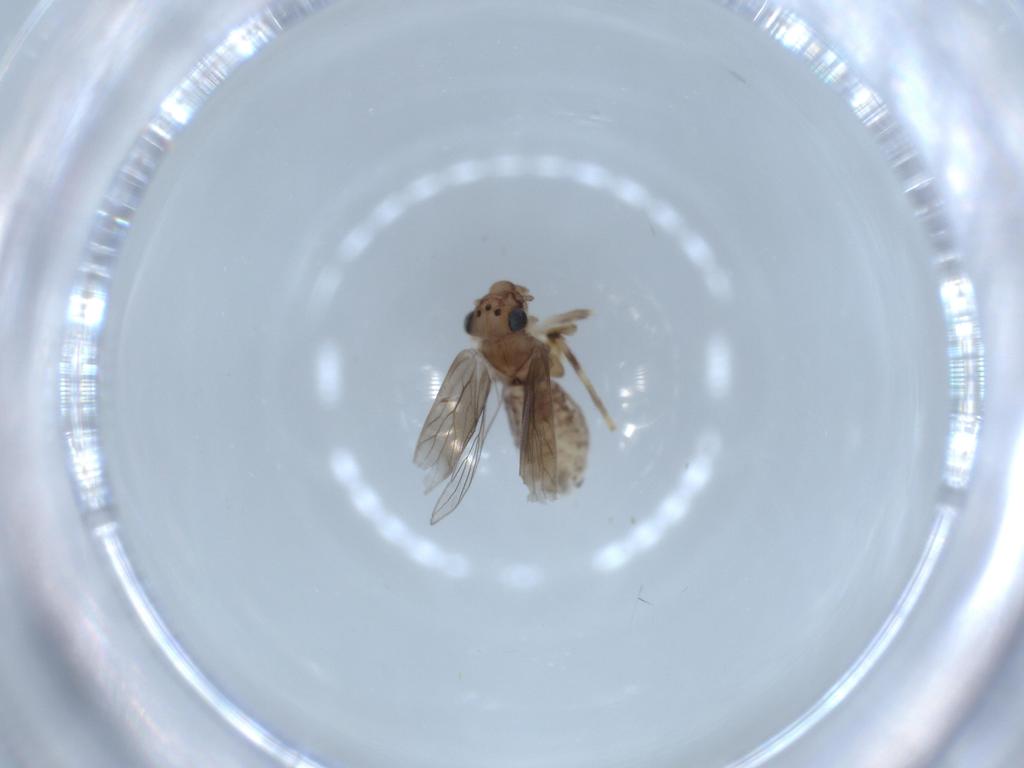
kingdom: Animalia
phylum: Arthropoda
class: Insecta
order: Psocodea
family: Lepidopsocidae
